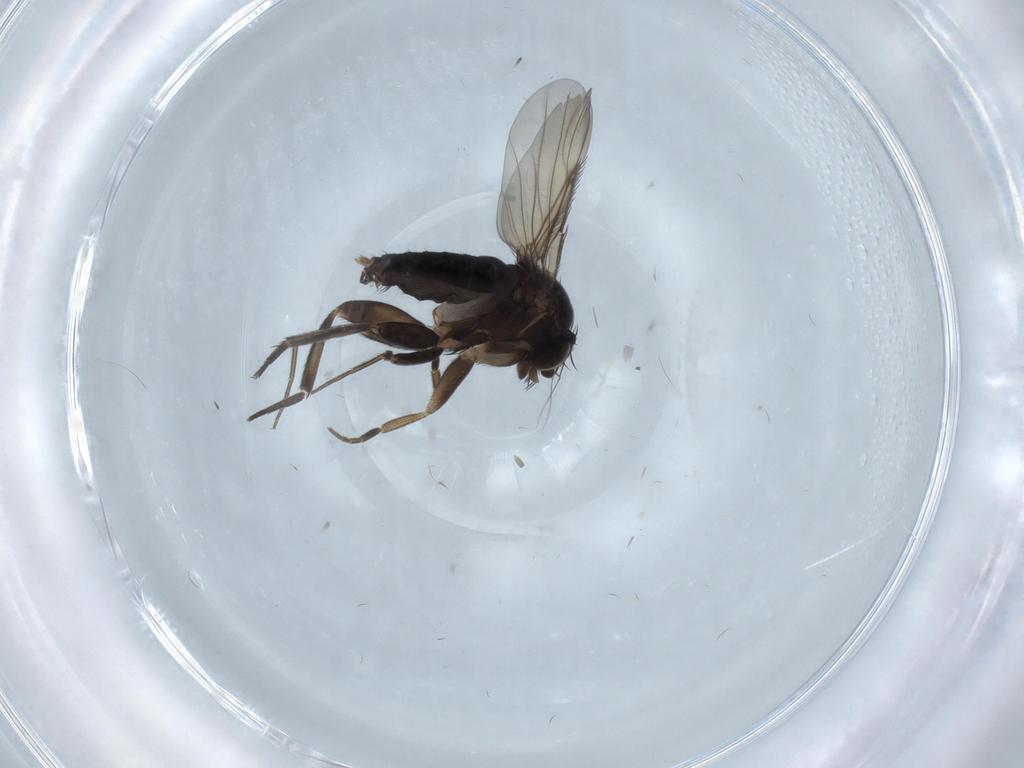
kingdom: Animalia
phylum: Arthropoda
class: Insecta
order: Diptera
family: Phoridae
